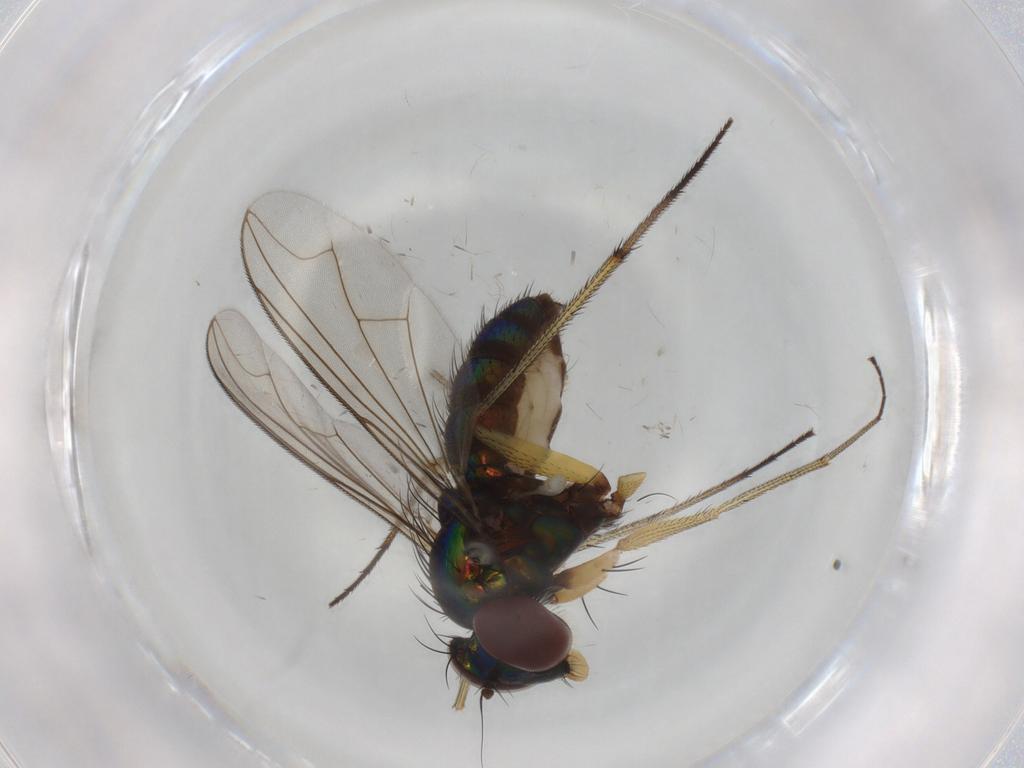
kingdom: Animalia
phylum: Arthropoda
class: Insecta
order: Diptera
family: Dolichopodidae
